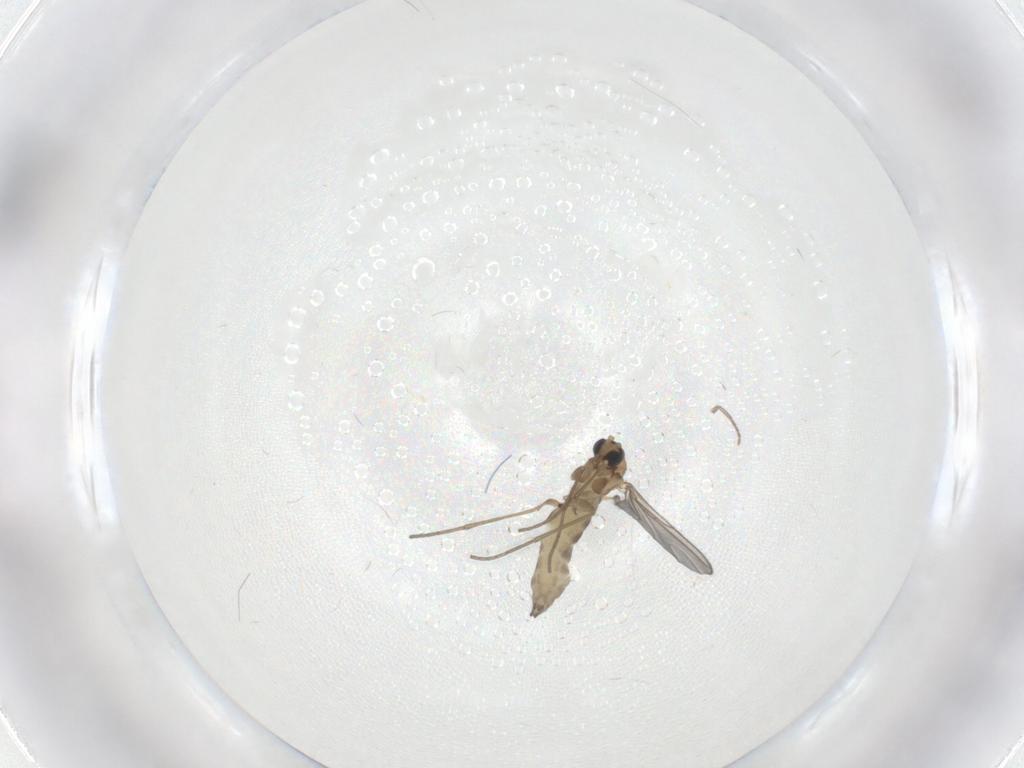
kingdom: Animalia
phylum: Arthropoda
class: Insecta
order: Diptera
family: Sciaridae
